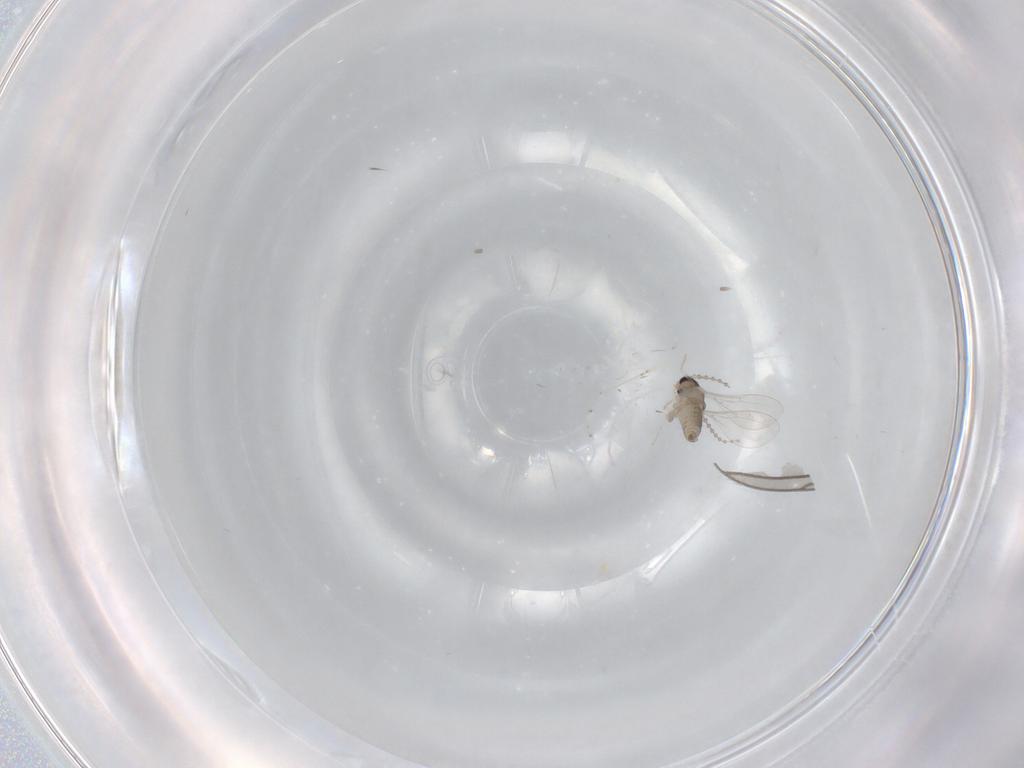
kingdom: Animalia
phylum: Arthropoda
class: Insecta
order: Diptera
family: Cecidomyiidae
